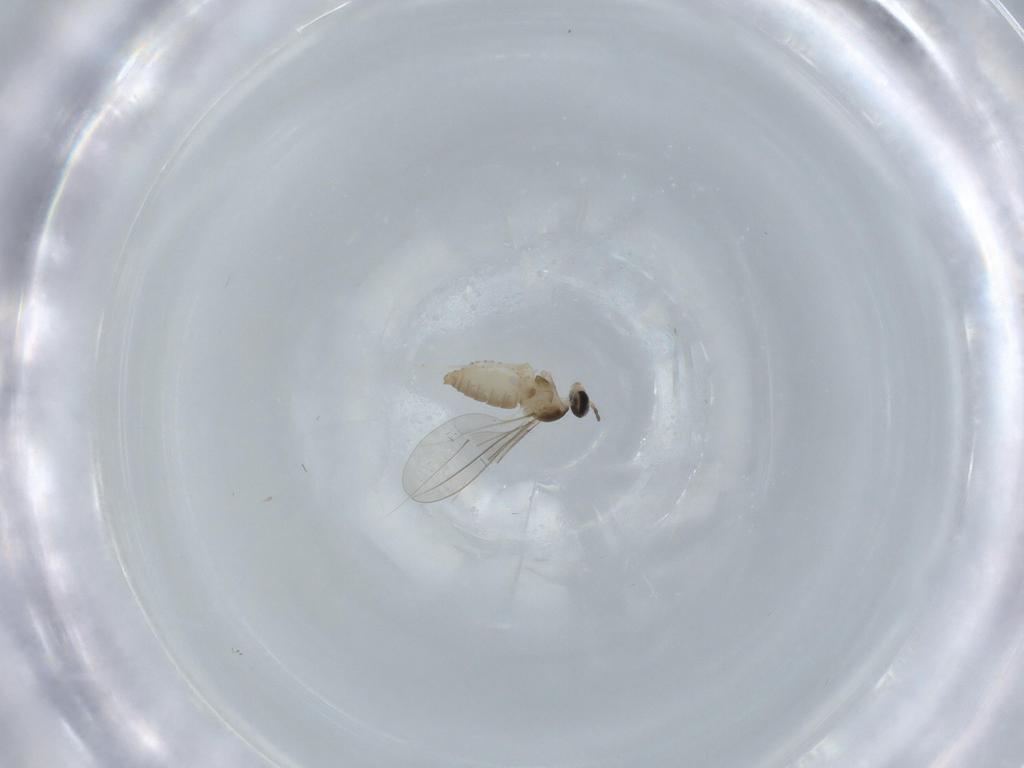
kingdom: Animalia
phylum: Arthropoda
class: Insecta
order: Diptera
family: Cecidomyiidae
